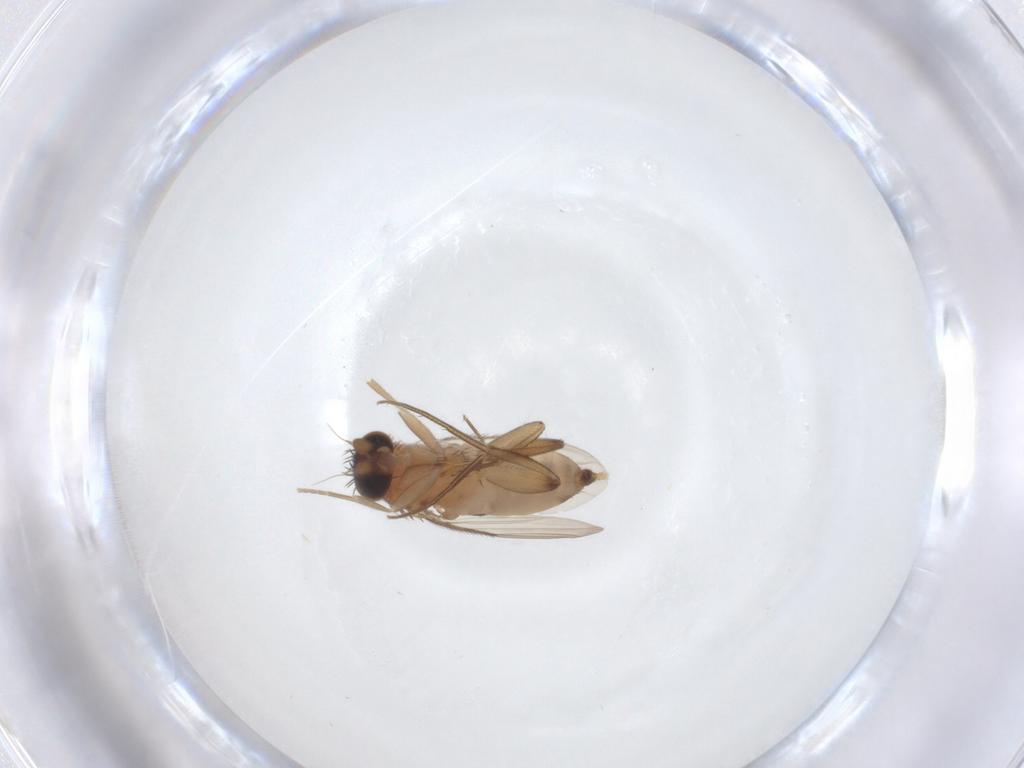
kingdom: Animalia
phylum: Arthropoda
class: Insecta
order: Diptera
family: Phoridae
